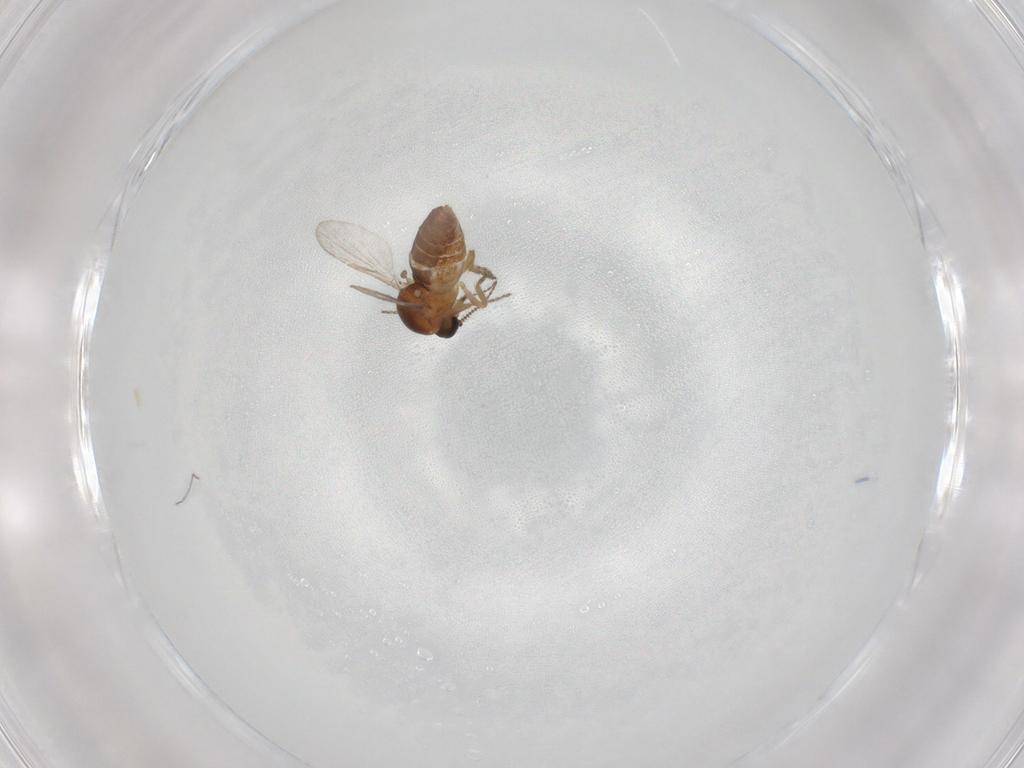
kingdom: Animalia
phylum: Arthropoda
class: Insecta
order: Diptera
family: Ceratopogonidae
